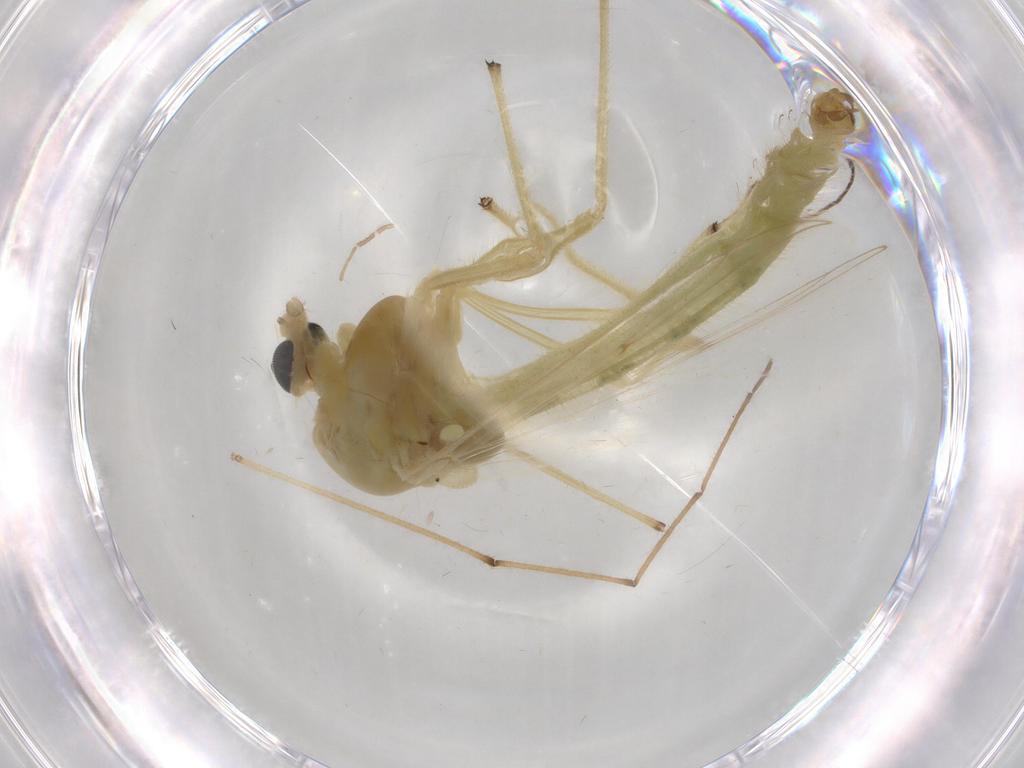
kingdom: Animalia
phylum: Arthropoda
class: Insecta
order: Diptera
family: Chironomidae
